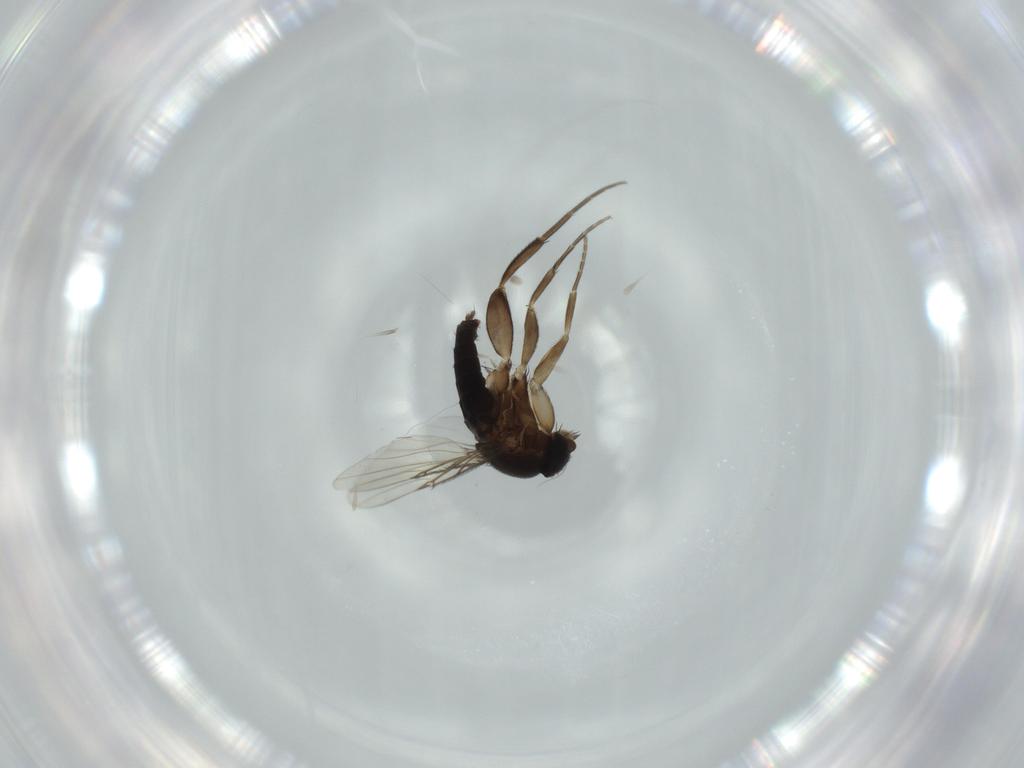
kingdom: Animalia
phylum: Arthropoda
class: Insecta
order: Diptera
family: Phoridae
